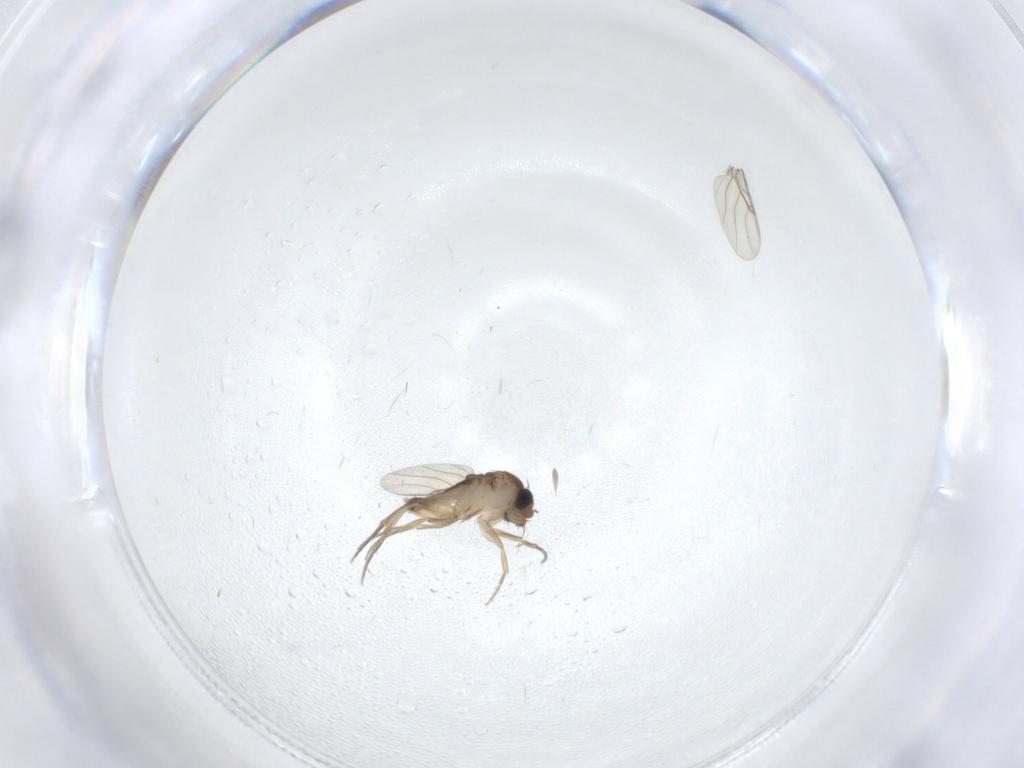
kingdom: Animalia
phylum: Arthropoda
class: Insecta
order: Diptera
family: Phoridae
